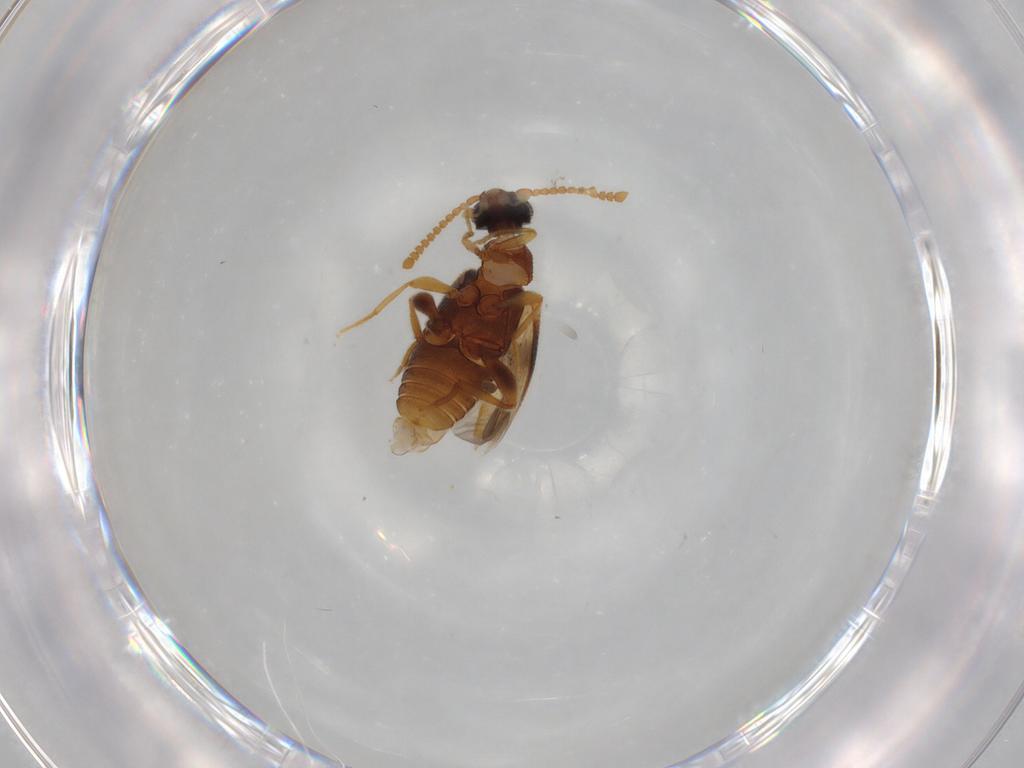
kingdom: Animalia
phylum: Arthropoda
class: Insecta
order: Coleoptera
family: Aderidae
